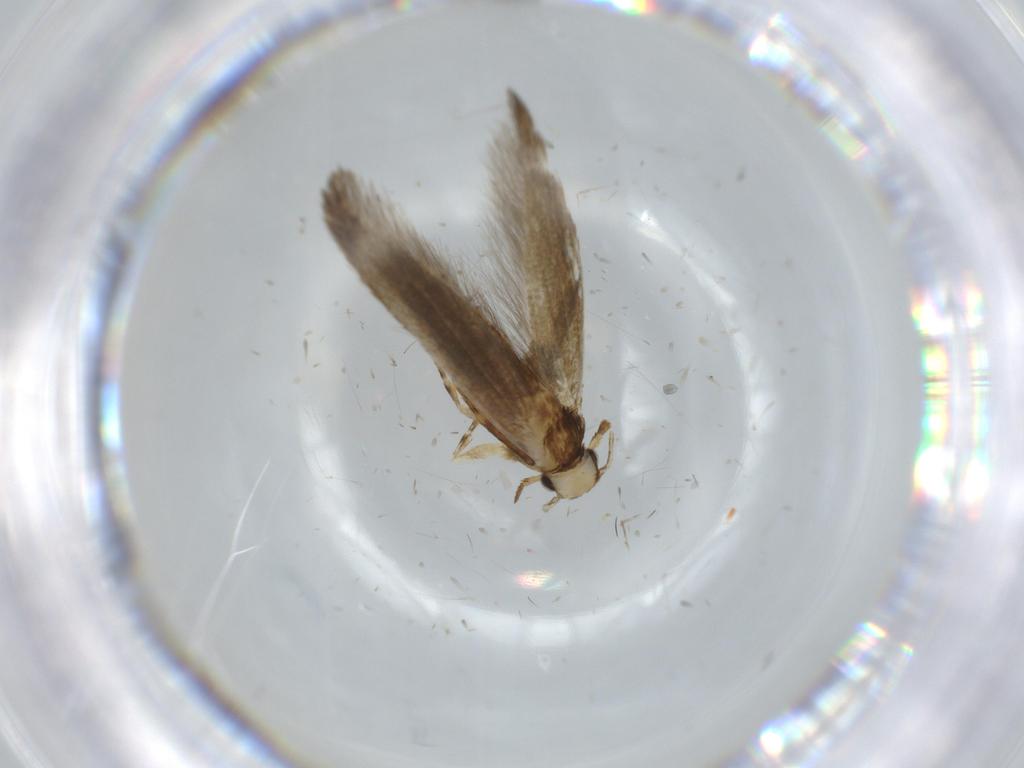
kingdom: Animalia
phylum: Arthropoda
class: Insecta
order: Lepidoptera
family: Tineidae
